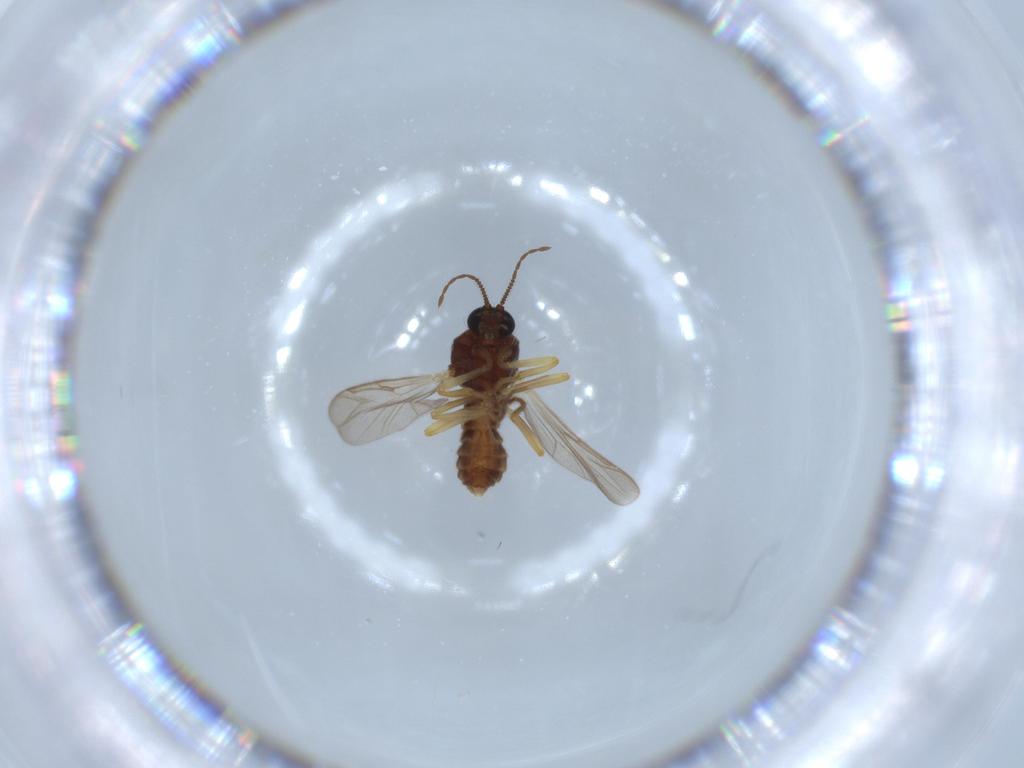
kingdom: Animalia
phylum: Arthropoda
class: Insecta
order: Diptera
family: Ceratopogonidae
